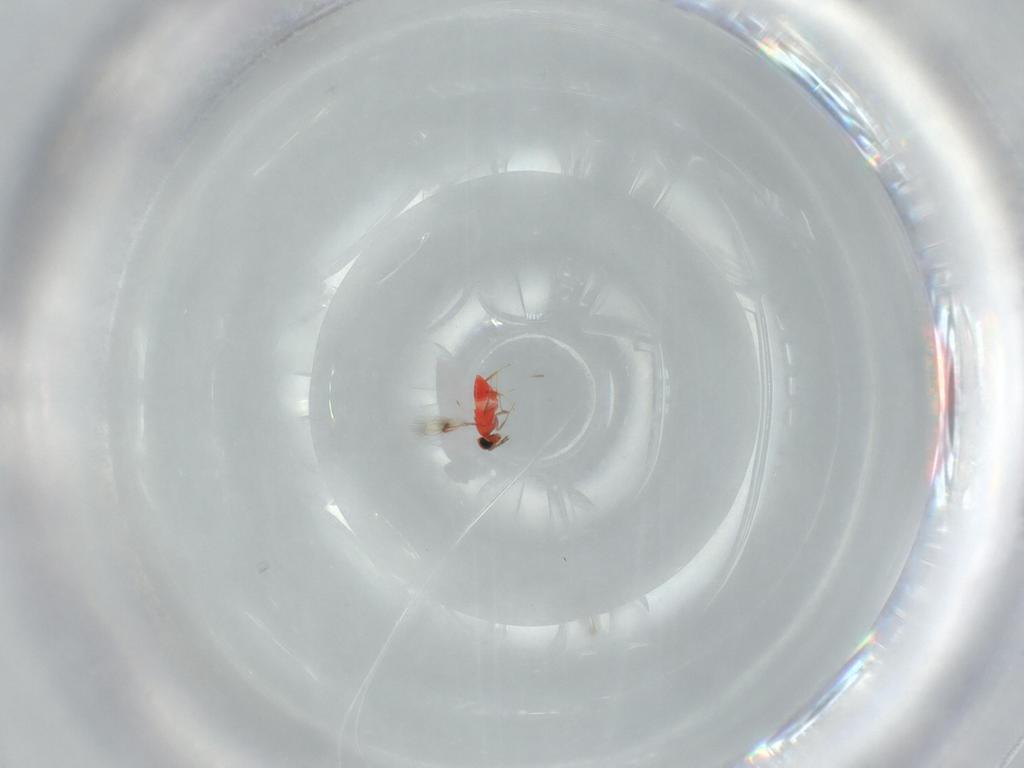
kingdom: Animalia
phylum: Arthropoda
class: Insecta
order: Hymenoptera
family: Trichogrammatidae
